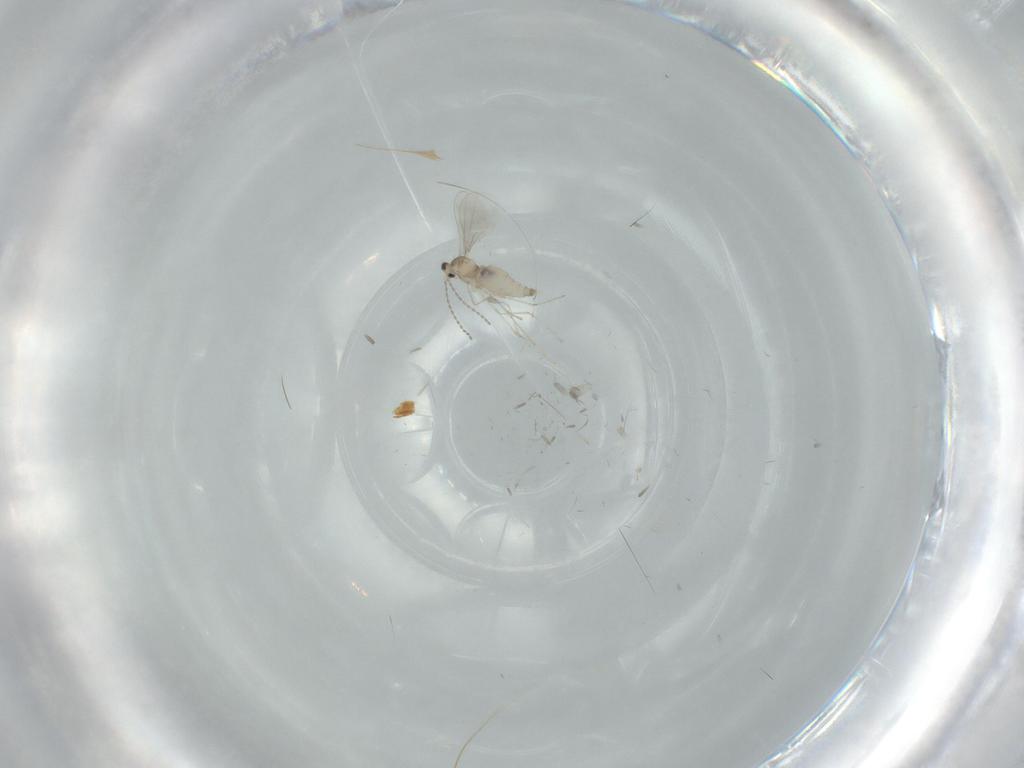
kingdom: Animalia
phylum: Arthropoda
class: Insecta
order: Diptera
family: Cecidomyiidae
